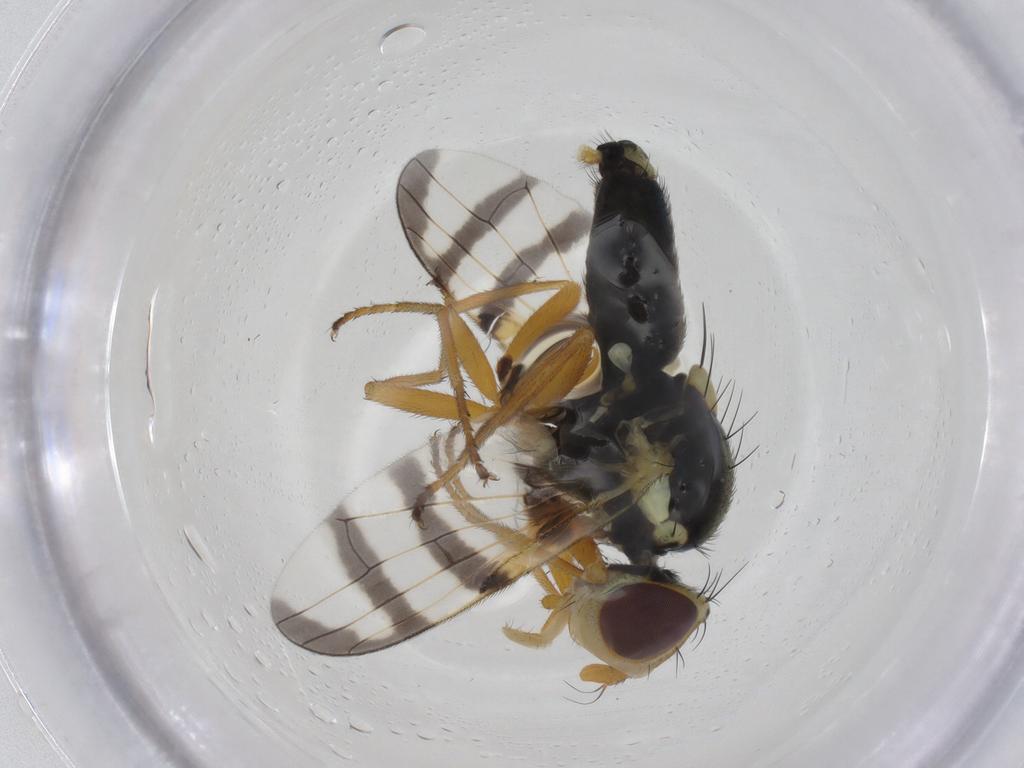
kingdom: Animalia
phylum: Arthropoda
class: Insecta
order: Diptera
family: Tephritidae
